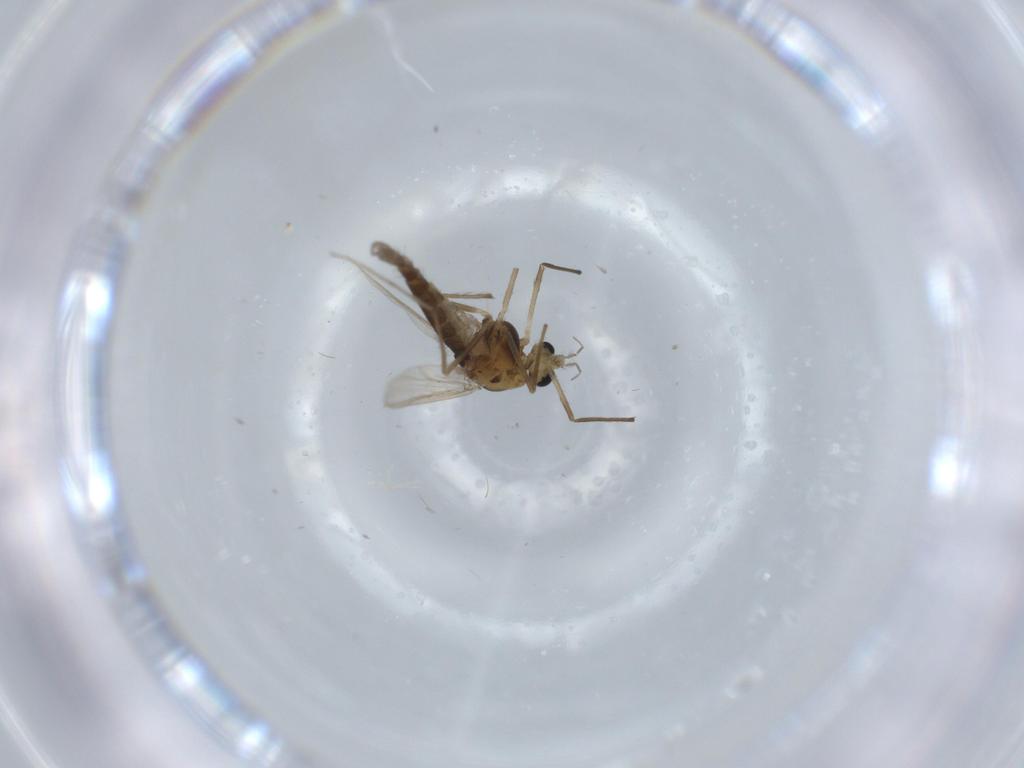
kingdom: Animalia
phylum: Arthropoda
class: Insecta
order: Diptera
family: Chironomidae
